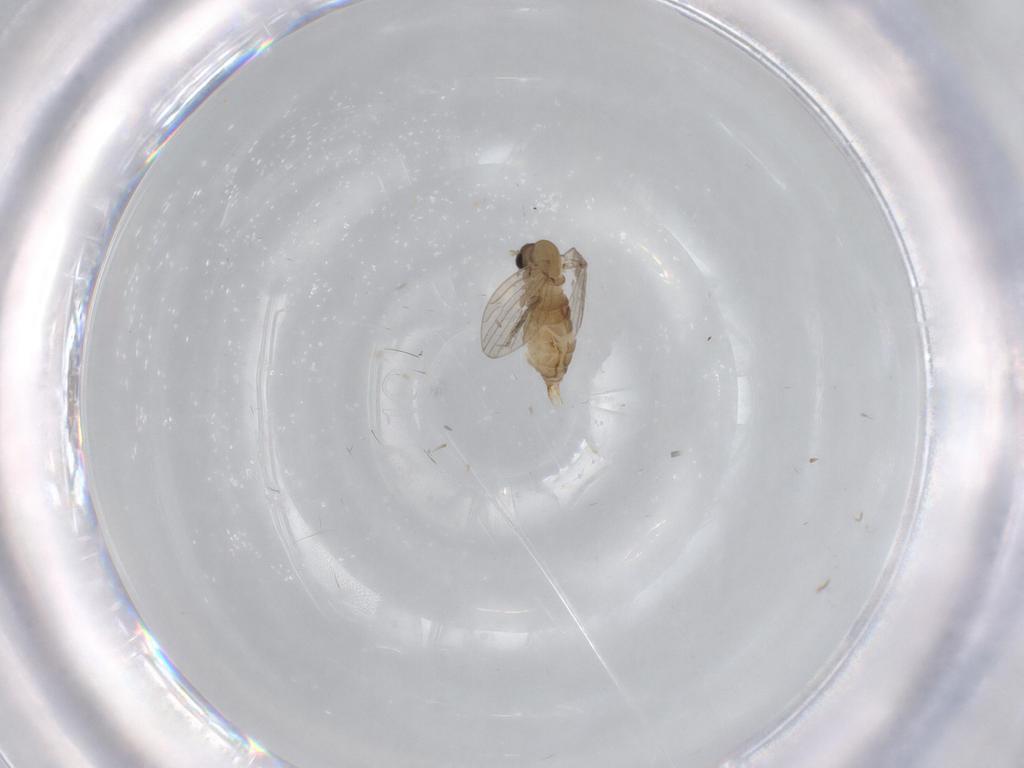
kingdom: Animalia
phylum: Arthropoda
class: Insecta
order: Diptera
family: Psychodidae
